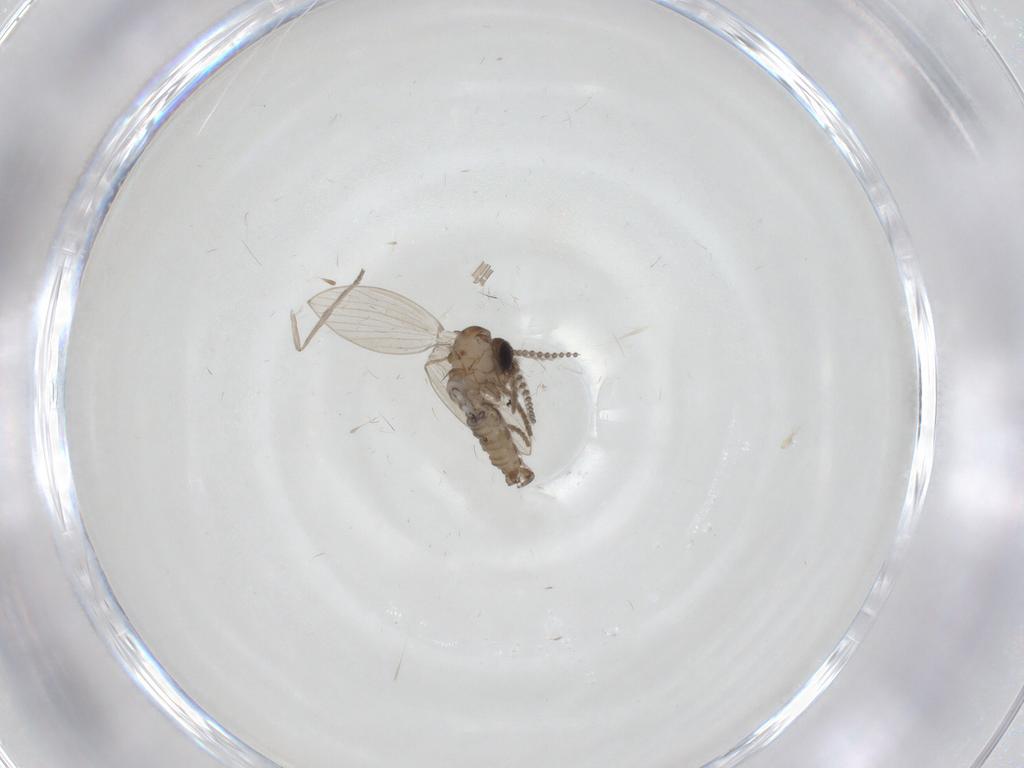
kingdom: Animalia
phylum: Arthropoda
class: Insecta
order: Diptera
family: Psychodidae
